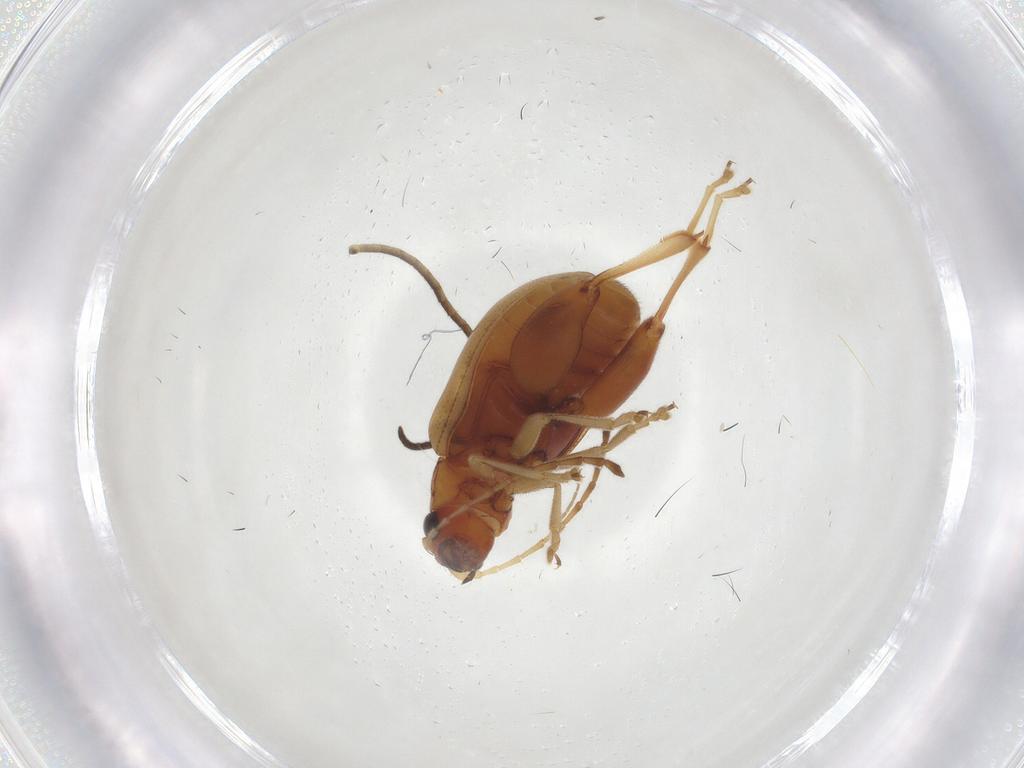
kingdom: Animalia
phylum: Arthropoda
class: Insecta
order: Coleoptera
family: Chrysomelidae
